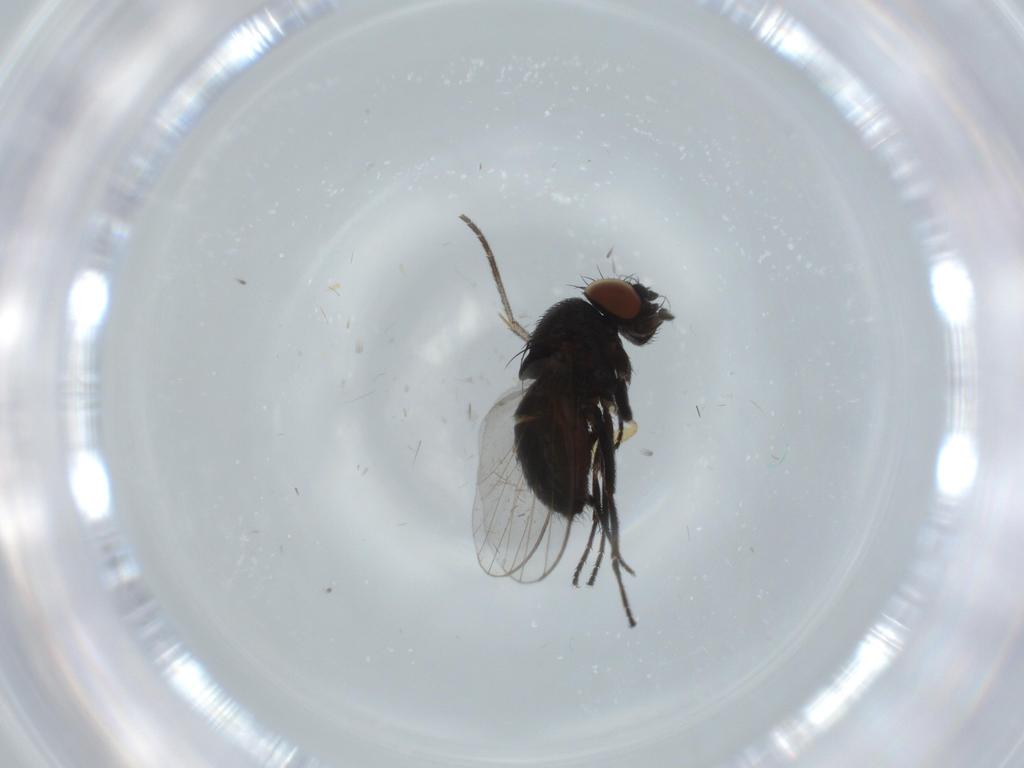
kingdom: Animalia
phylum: Arthropoda
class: Insecta
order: Diptera
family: Milichiidae
